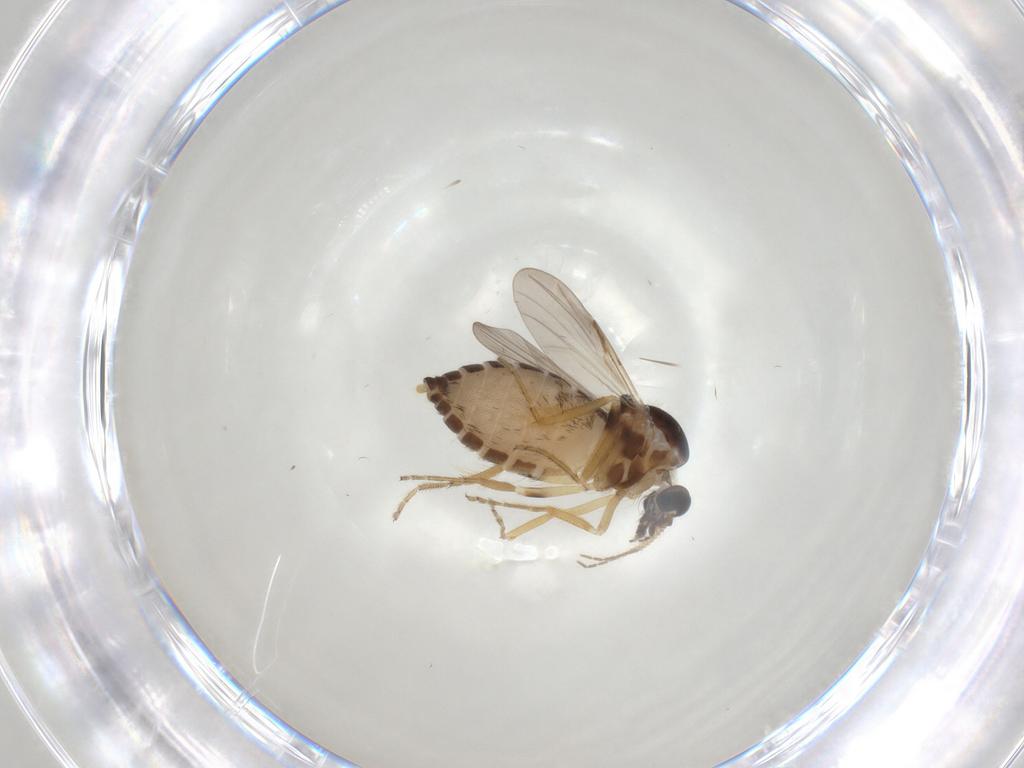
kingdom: Animalia
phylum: Arthropoda
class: Insecta
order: Diptera
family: Ceratopogonidae
